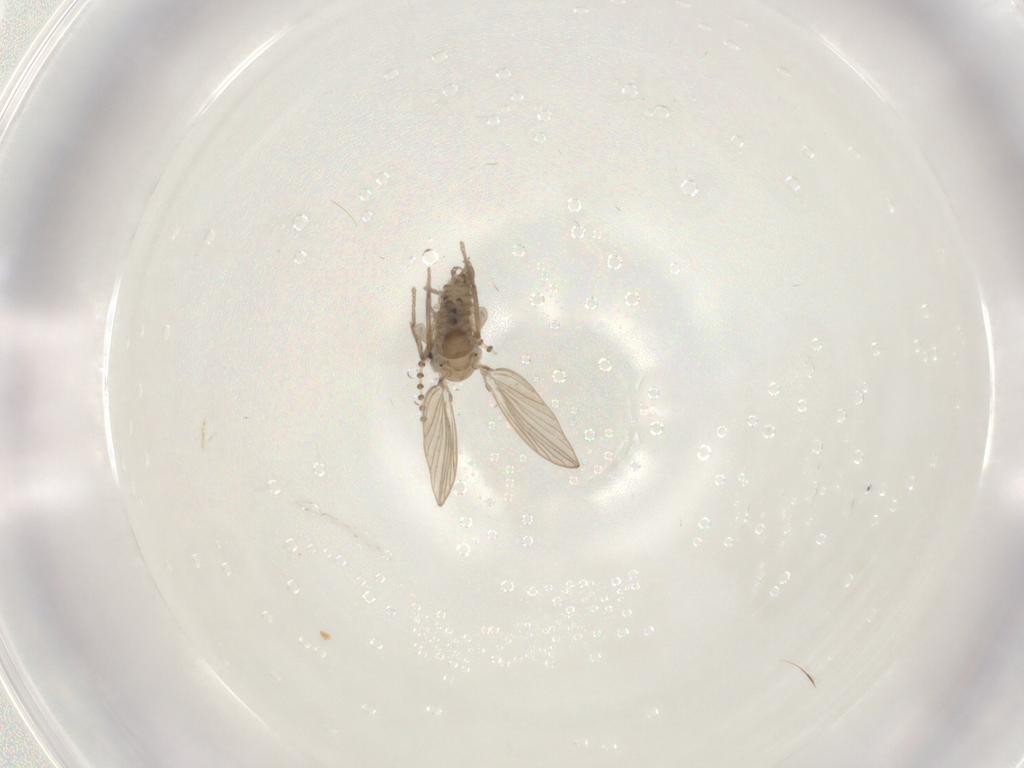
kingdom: Animalia
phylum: Arthropoda
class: Insecta
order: Diptera
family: Psychodidae
